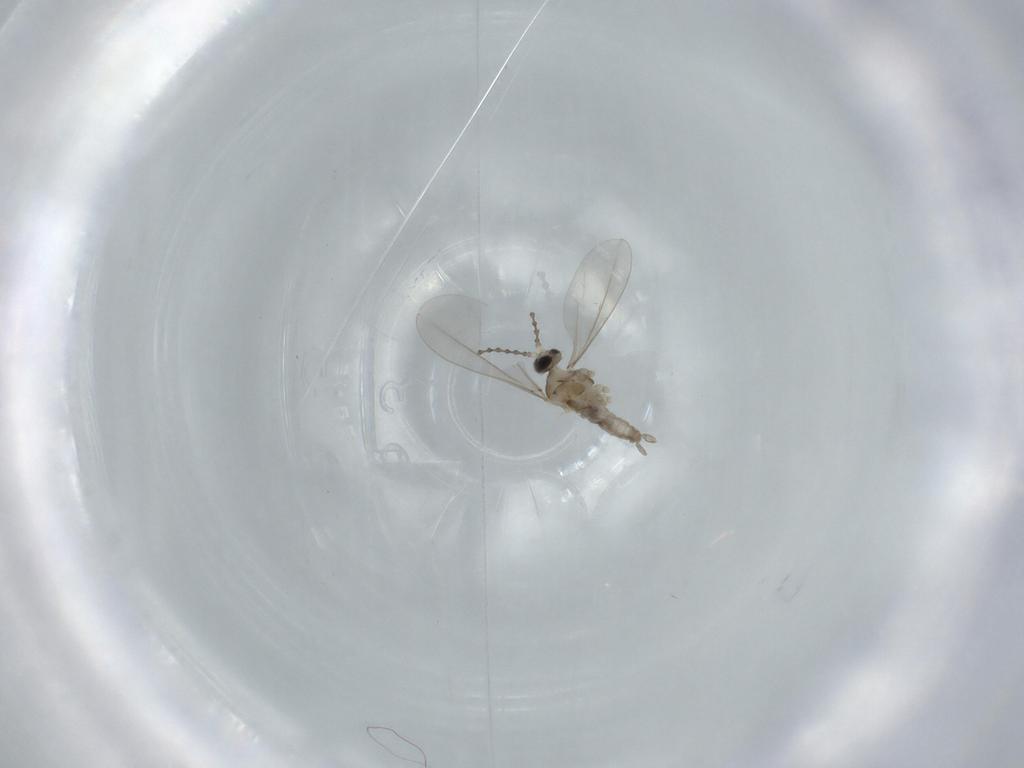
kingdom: Animalia
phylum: Arthropoda
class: Insecta
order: Diptera
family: Cecidomyiidae
